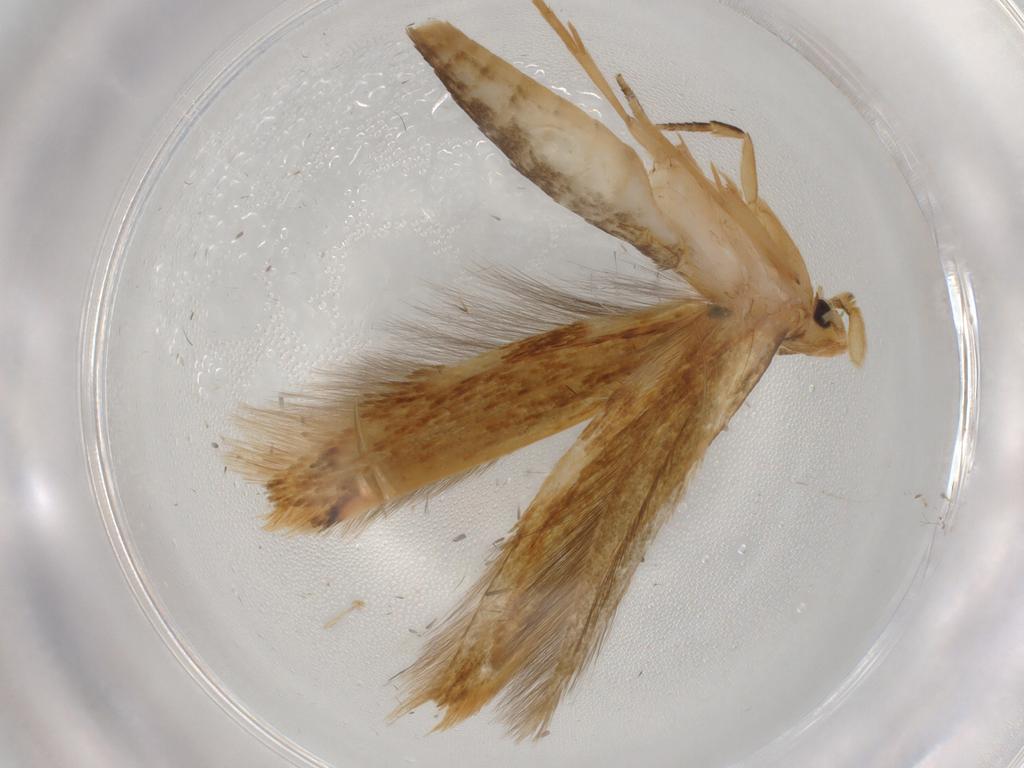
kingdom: Animalia
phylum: Arthropoda
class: Insecta
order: Lepidoptera
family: Tineidae
